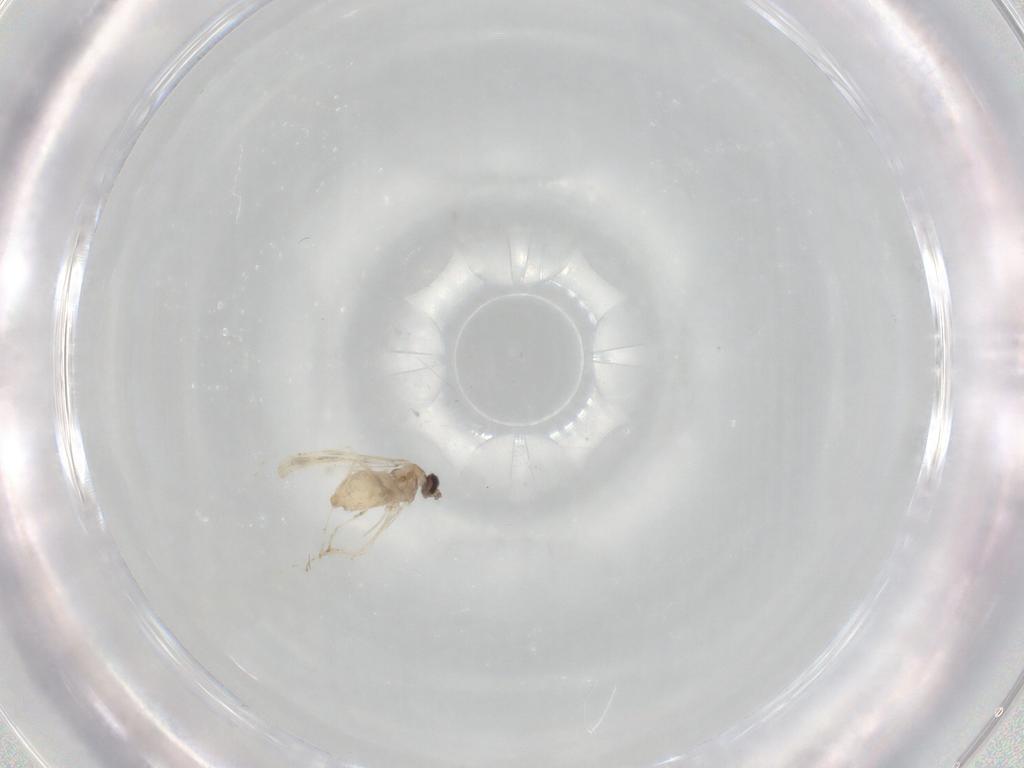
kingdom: Animalia
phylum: Arthropoda
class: Insecta
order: Diptera
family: Cecidomyiidae
